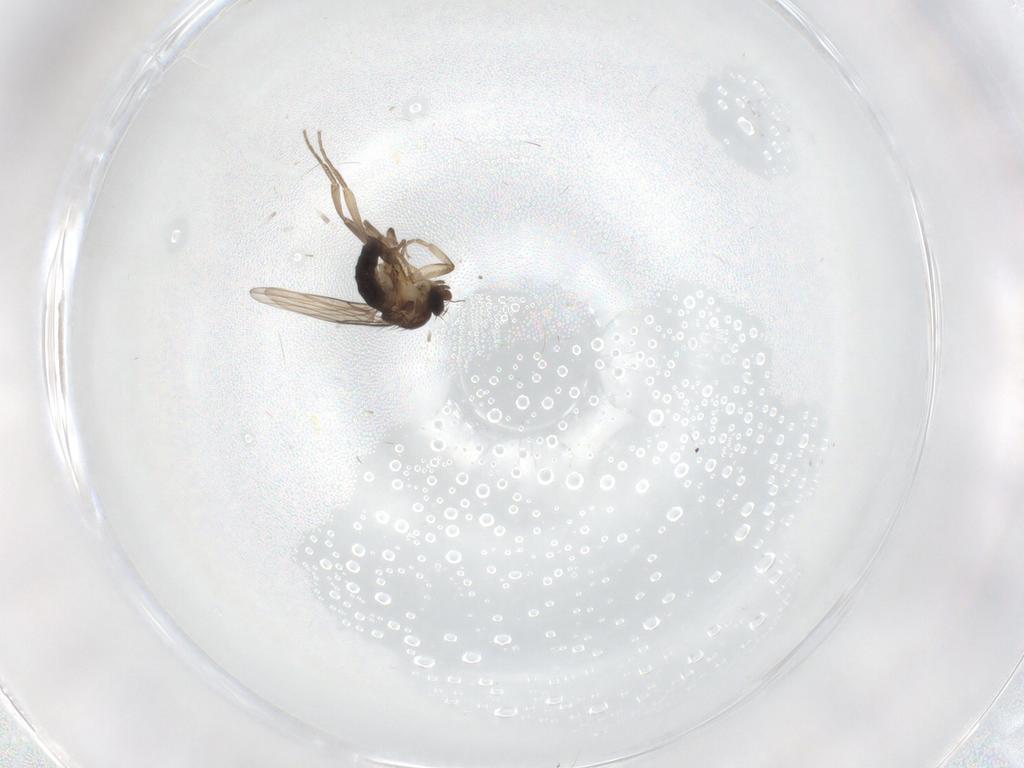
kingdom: Animalia
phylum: Arthropoda
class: Insecta
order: Diptera
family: Phoridae
